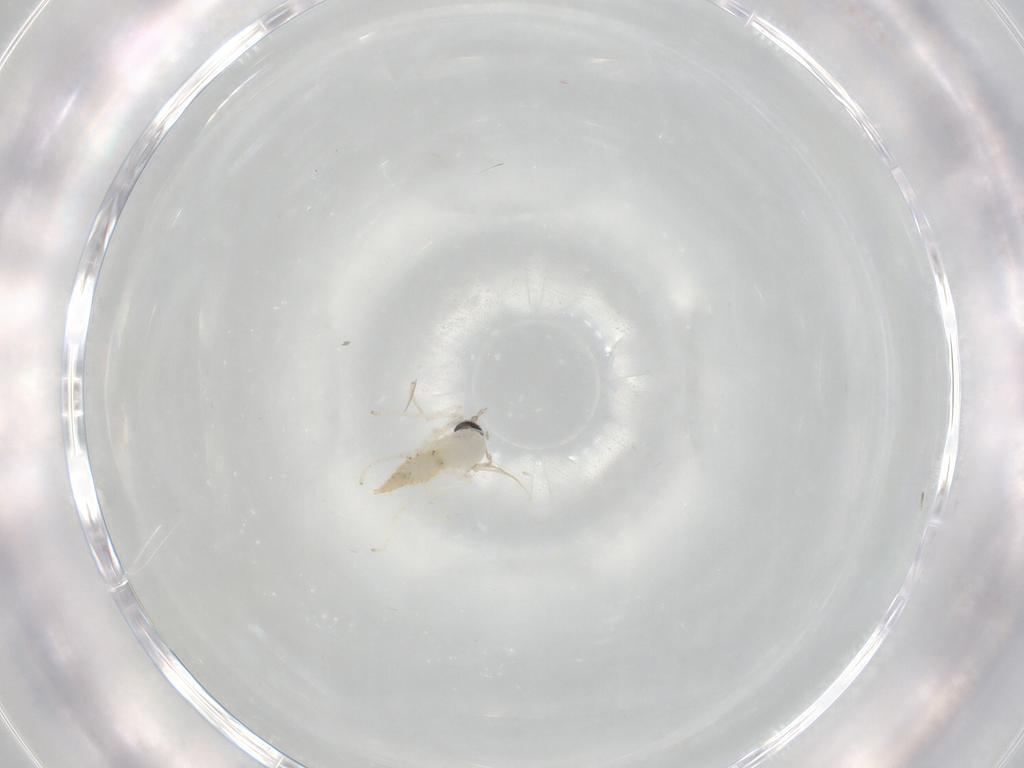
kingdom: Animalia
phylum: Arthropoda
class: Insecta
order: Diptera
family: Cecidomyiidae
